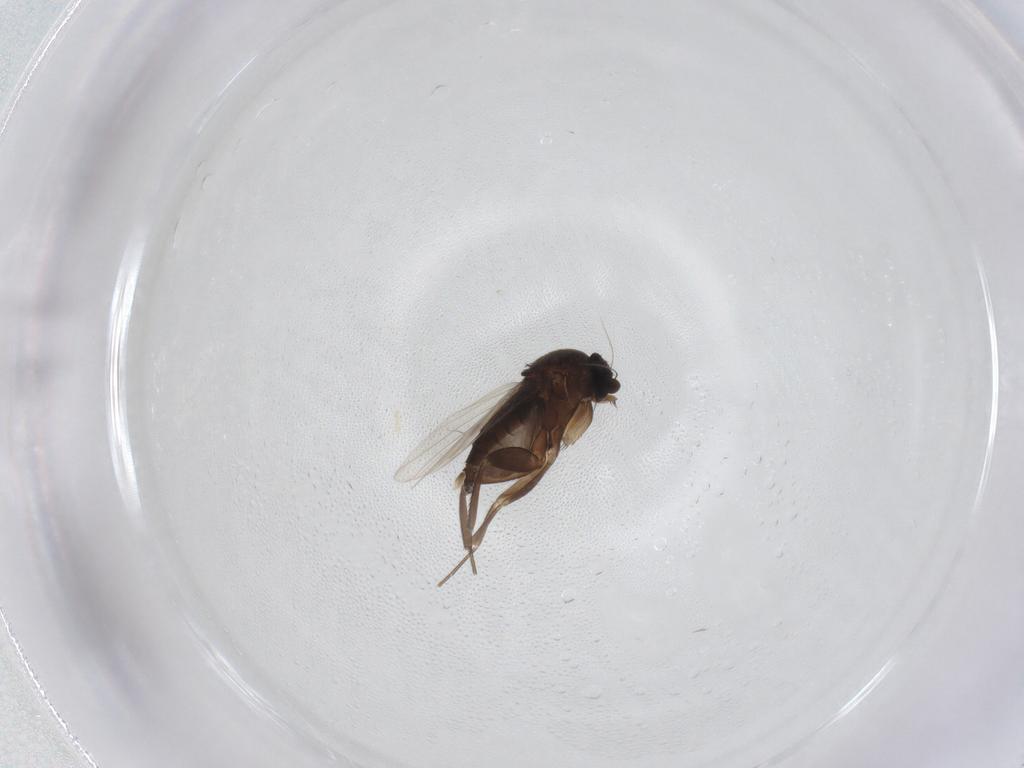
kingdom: Animalia
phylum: Arthropoda
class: Insecta
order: Diptera
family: Phoridae
